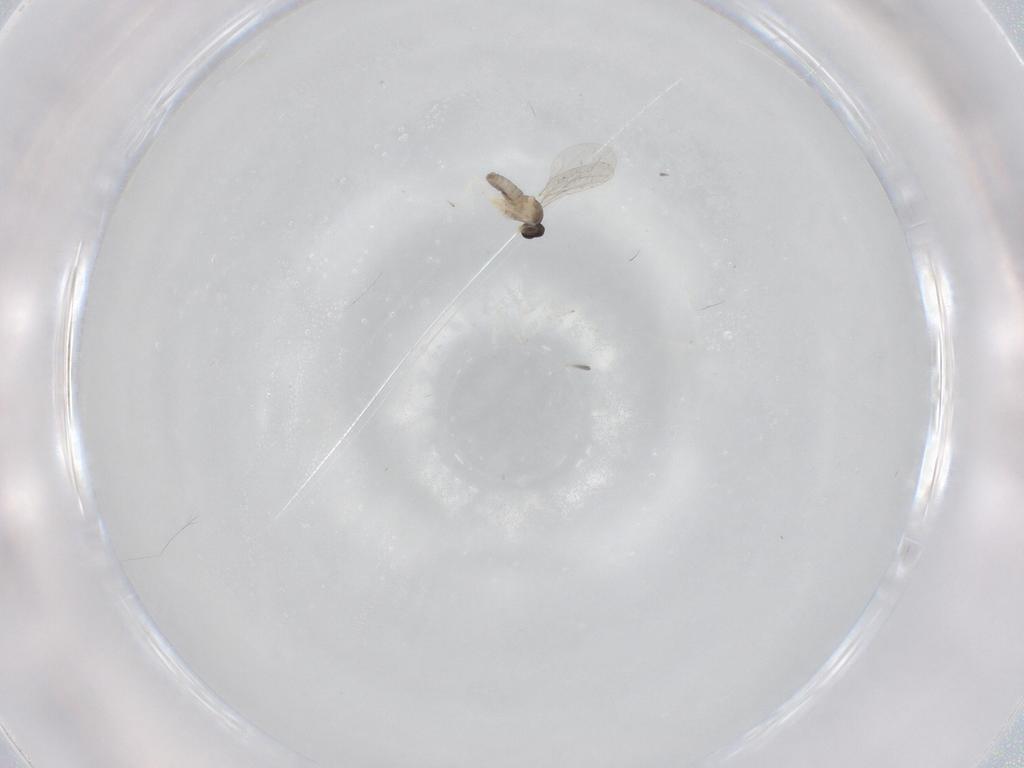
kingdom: Animalia
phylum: Arthropoda
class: Insecta
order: Diptera
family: Cecidomyiidae
